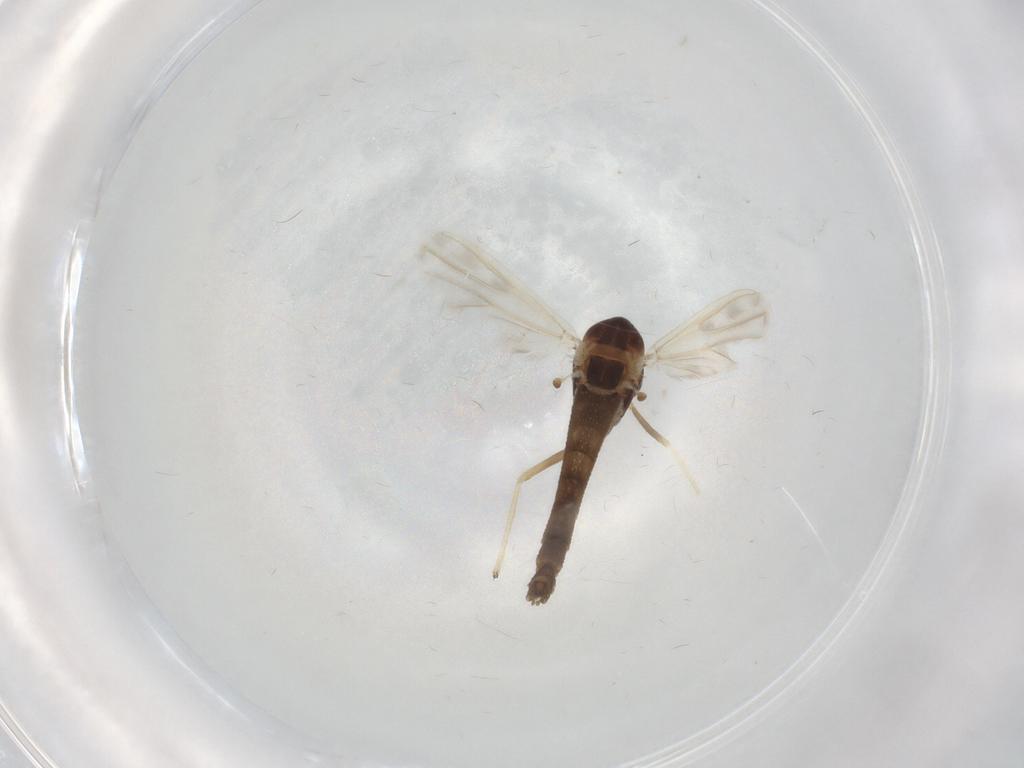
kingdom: Animalia
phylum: Arthropoda
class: Insecta
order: Diptera
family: Chironomidae
